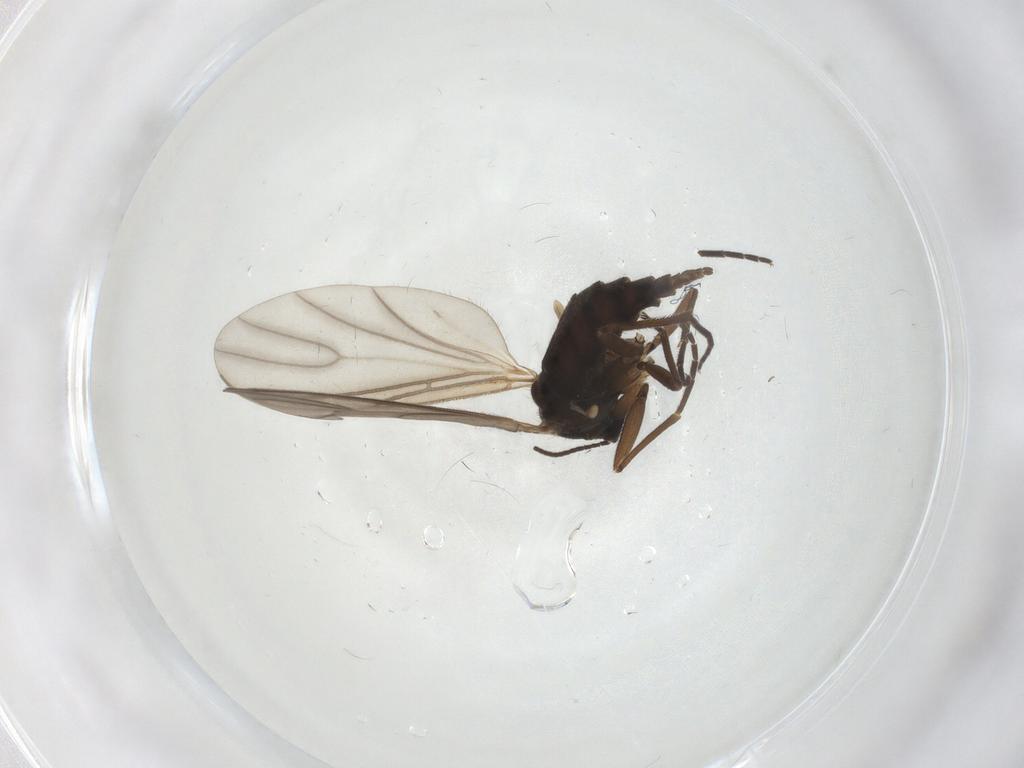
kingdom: Animalia
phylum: Arthropoda
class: Insecta
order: Diptera
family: Sciaridae
